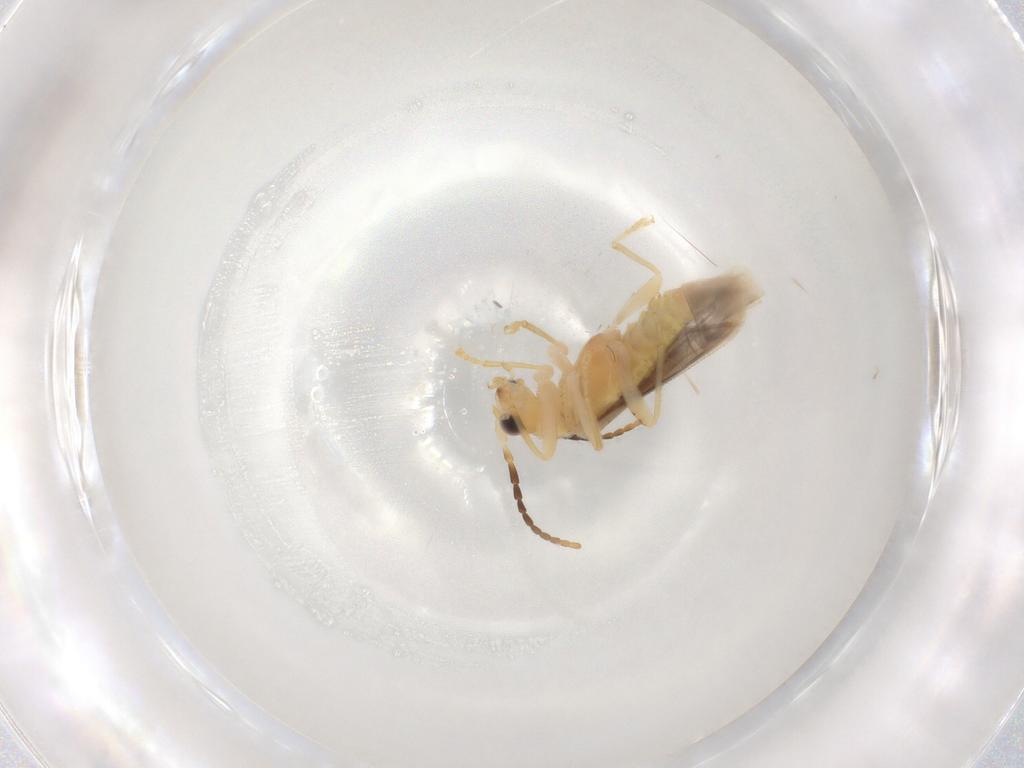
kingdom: Animalia
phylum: Arthropoda
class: Insecta
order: Coleoptera
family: Cantharidae
